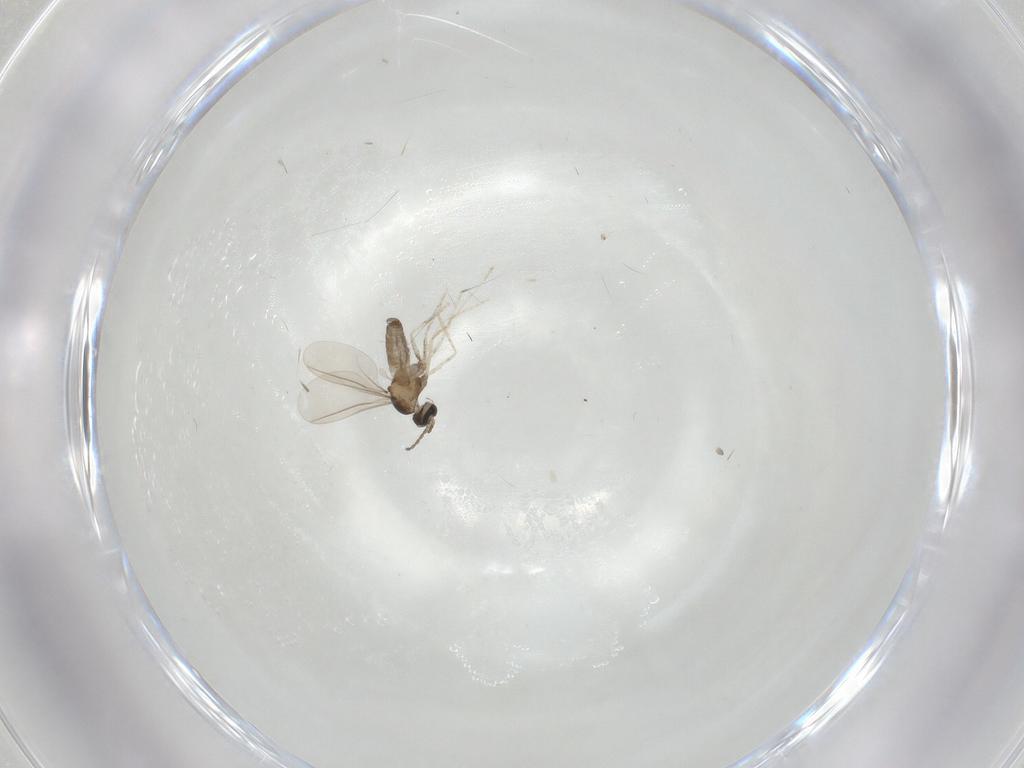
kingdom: Animalia
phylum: Arthropoda
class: Insecta
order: Diptera
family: Cecidomyiidae
